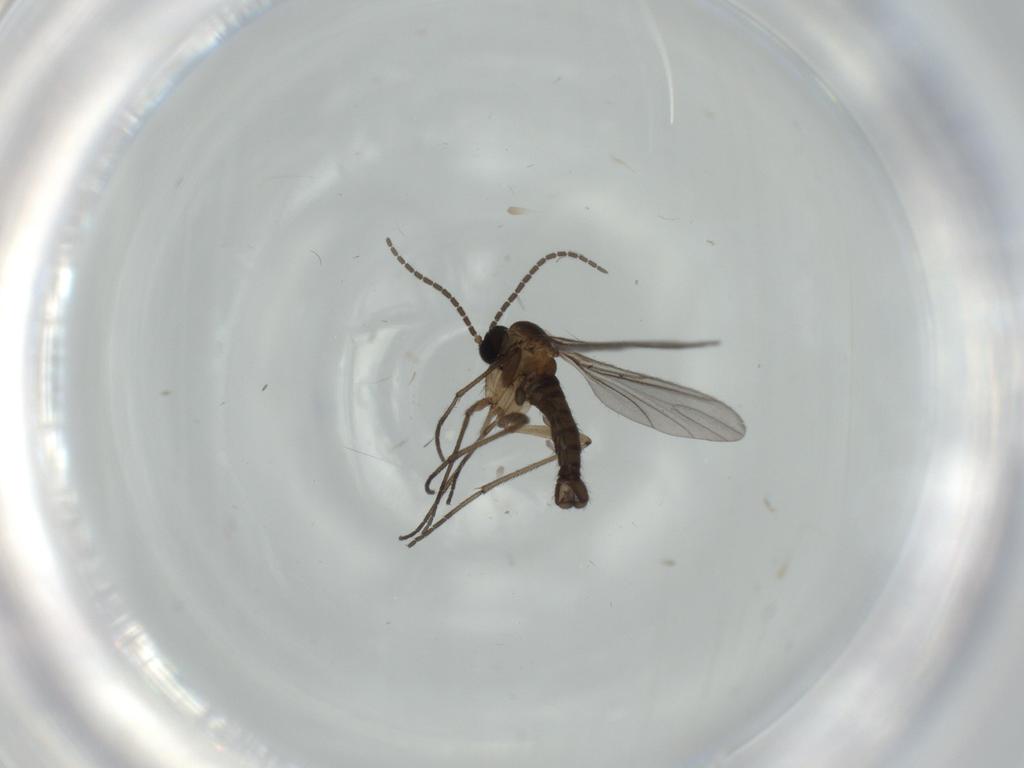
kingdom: Animalia
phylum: Arthropoda
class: Insecta
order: Diptera
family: Sciaridae
